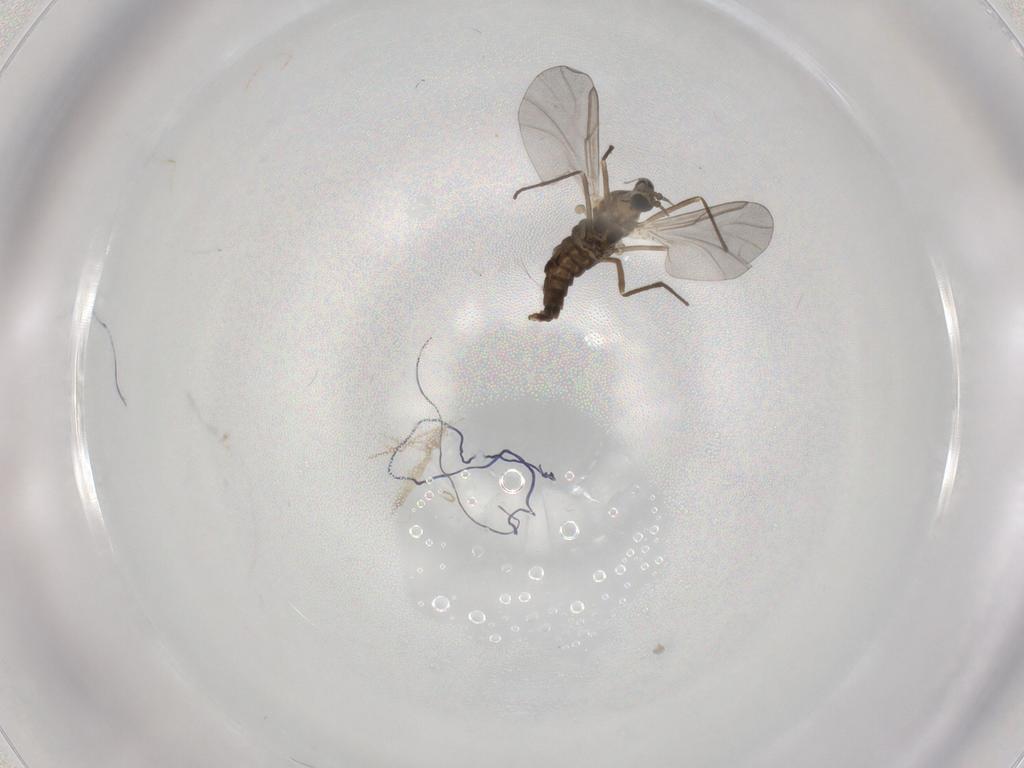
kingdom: Animalia
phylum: Arthropoda
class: Insecta
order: Diptera
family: Cecidomyiidae
